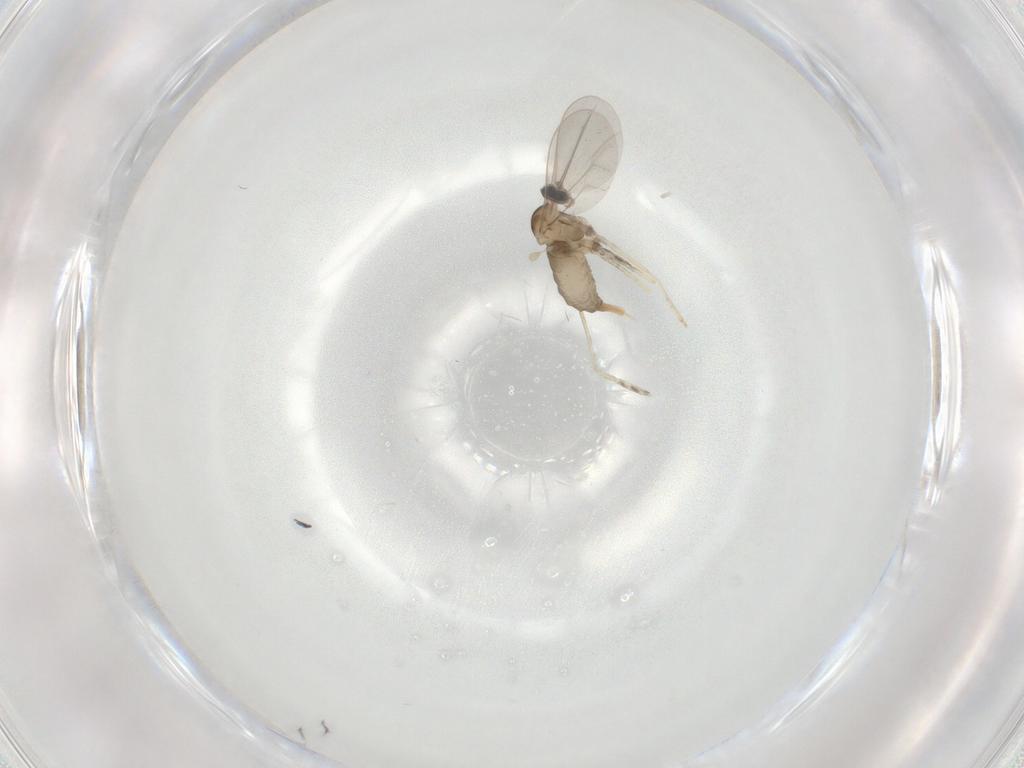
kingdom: Animalia
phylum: Arthropoda
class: Insecta
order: Diptera
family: Cecidomyiidae
